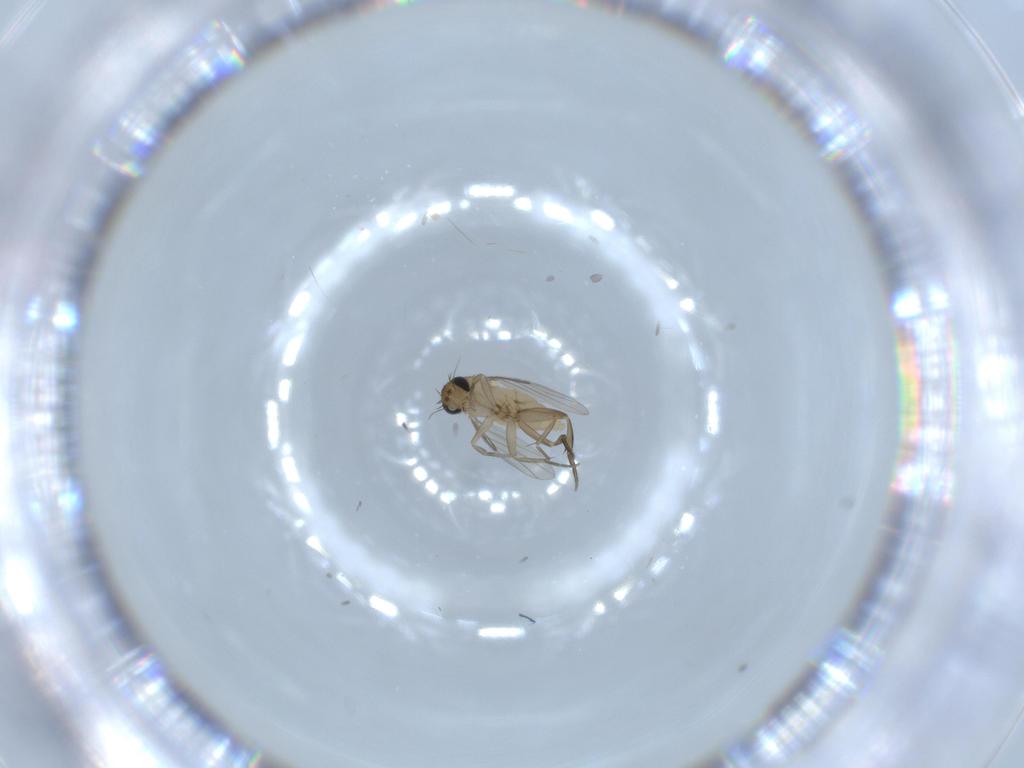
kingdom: Animalia
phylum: Arthropoda
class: Insecta
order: Diptera
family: Phoridae
